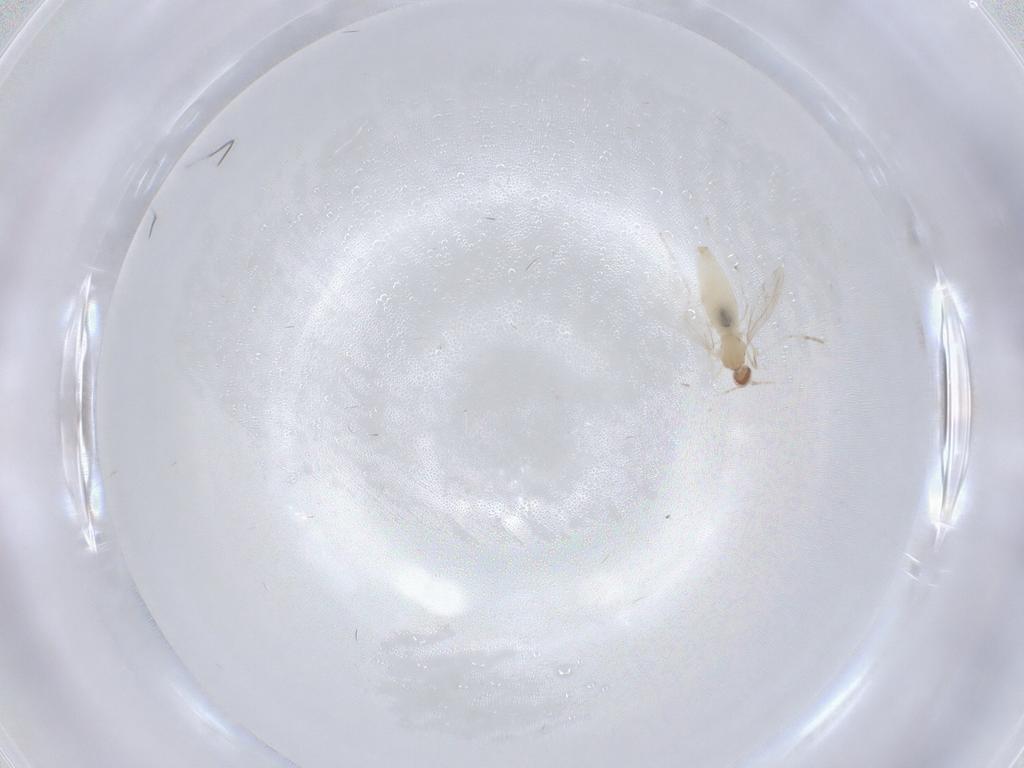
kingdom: Animalia
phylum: Arthropoda
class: Insecta
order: Diptera
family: Cecidomyiidae
